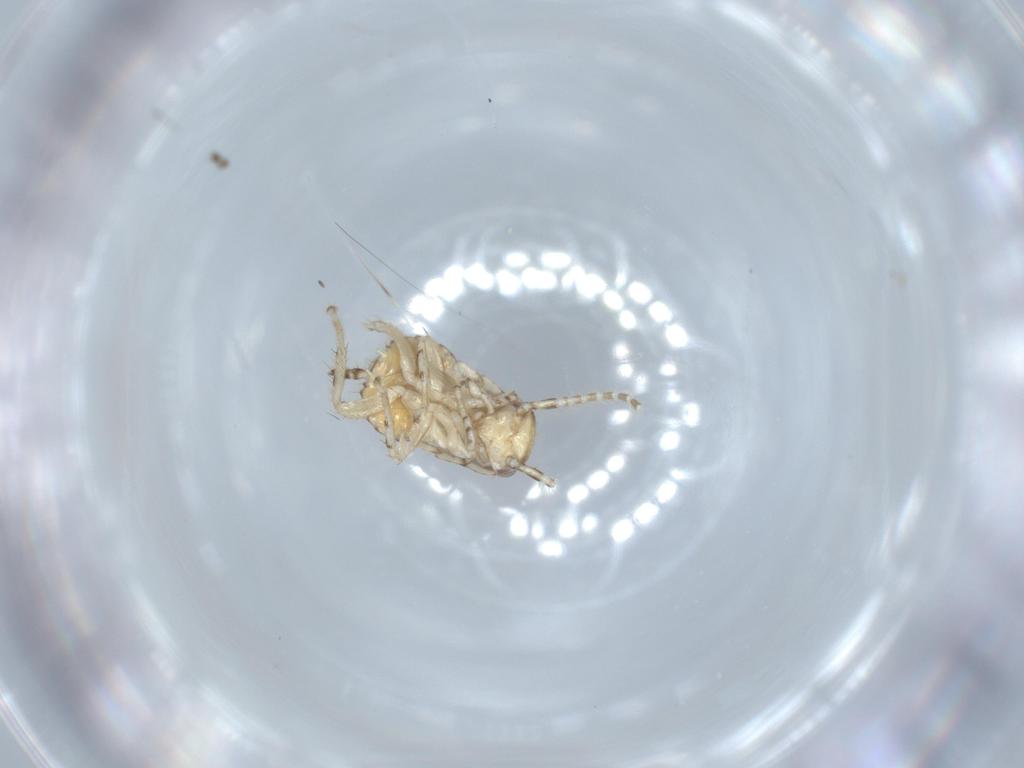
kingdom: Animalia
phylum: Arthropoda
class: Insecta
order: Blattodea
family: Ectobiidae
